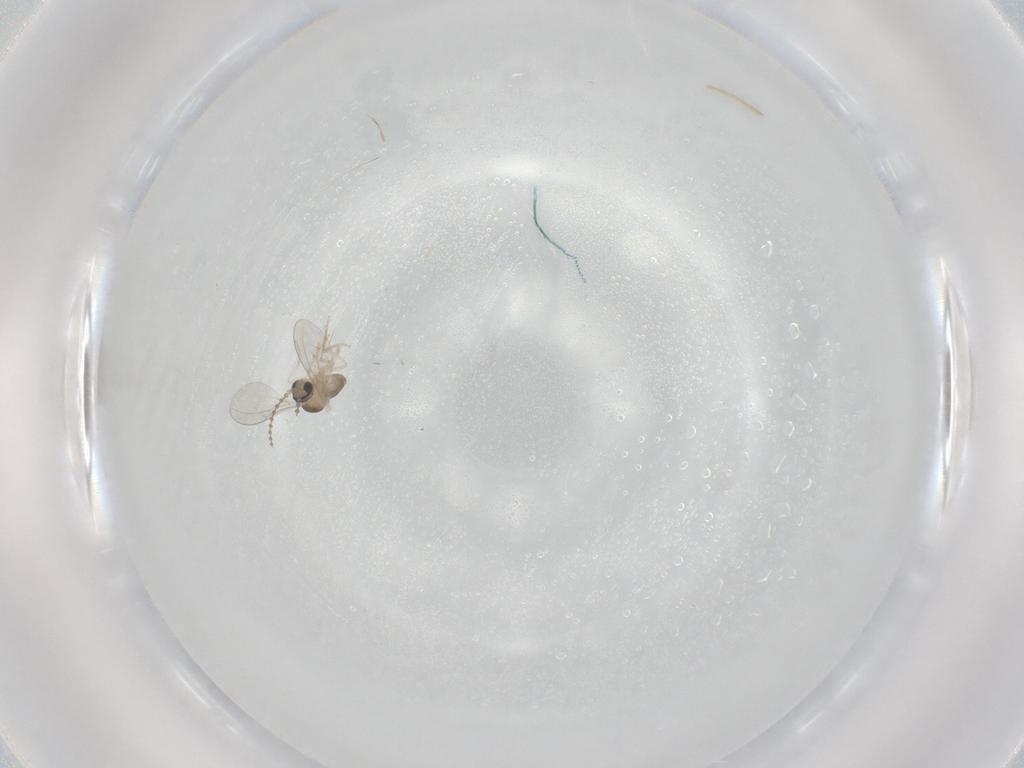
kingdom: Animalia
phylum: Arthropoda
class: Insecta
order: Diptera
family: Cecidomyiidae
